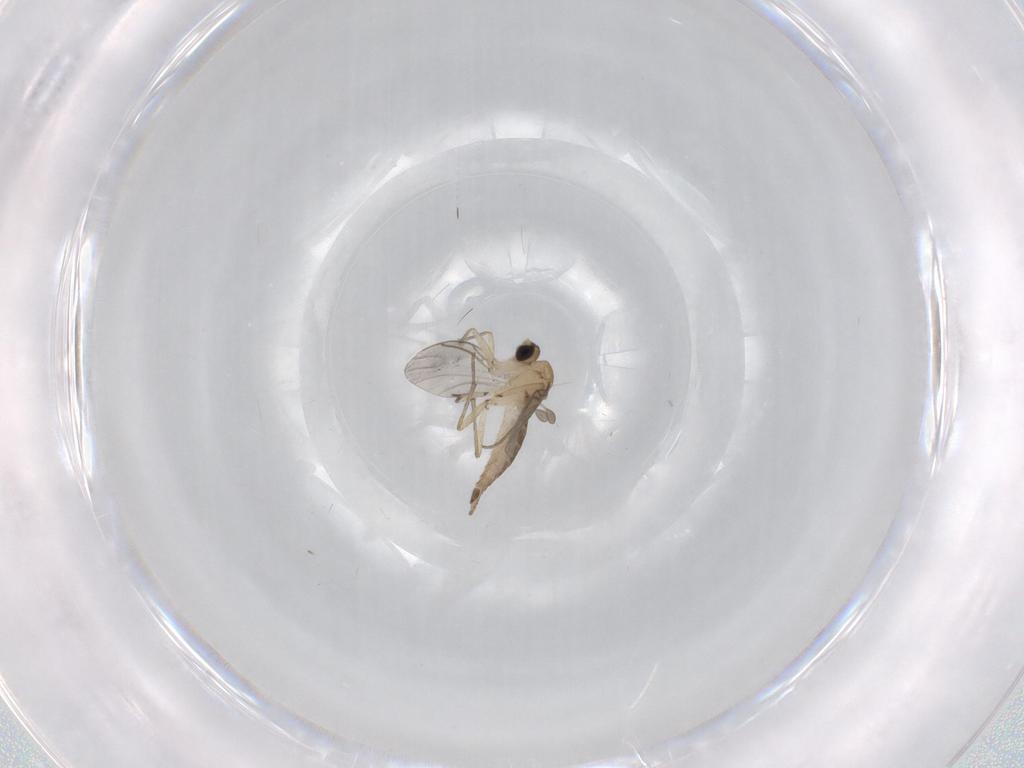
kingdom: Animalia
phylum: Arthropoda
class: Insecta
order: Diptera
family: Sciaridae
